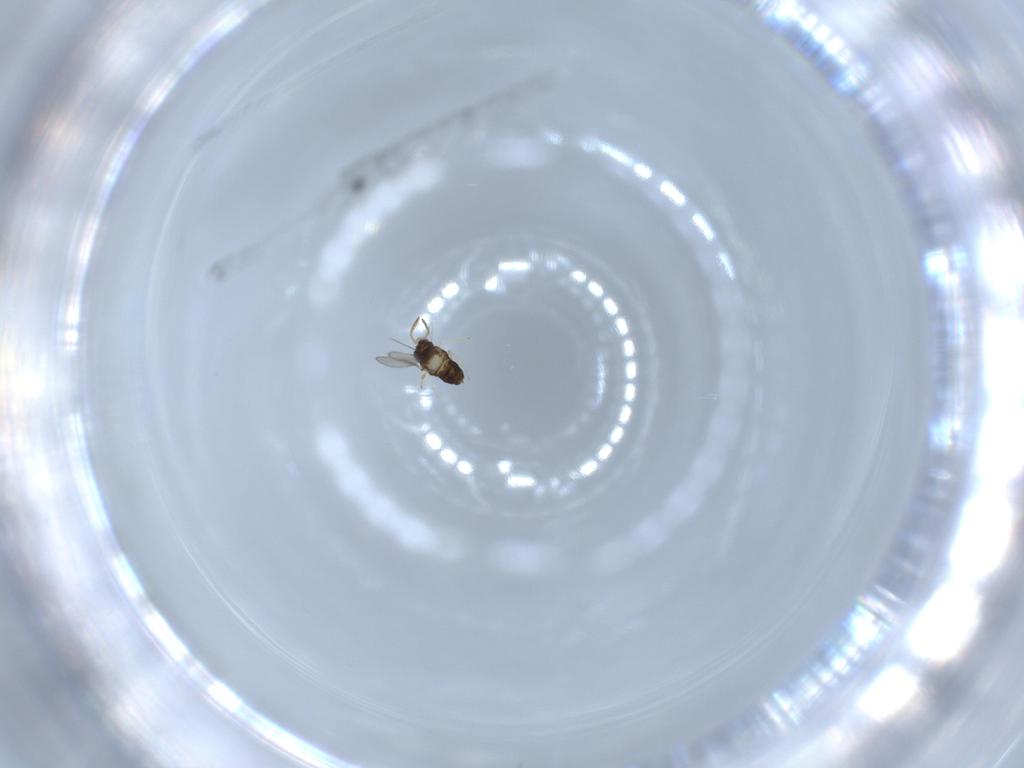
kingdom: Animalia
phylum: Arthropoda
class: Insecta
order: Hymenoptera
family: Aphelinidae
